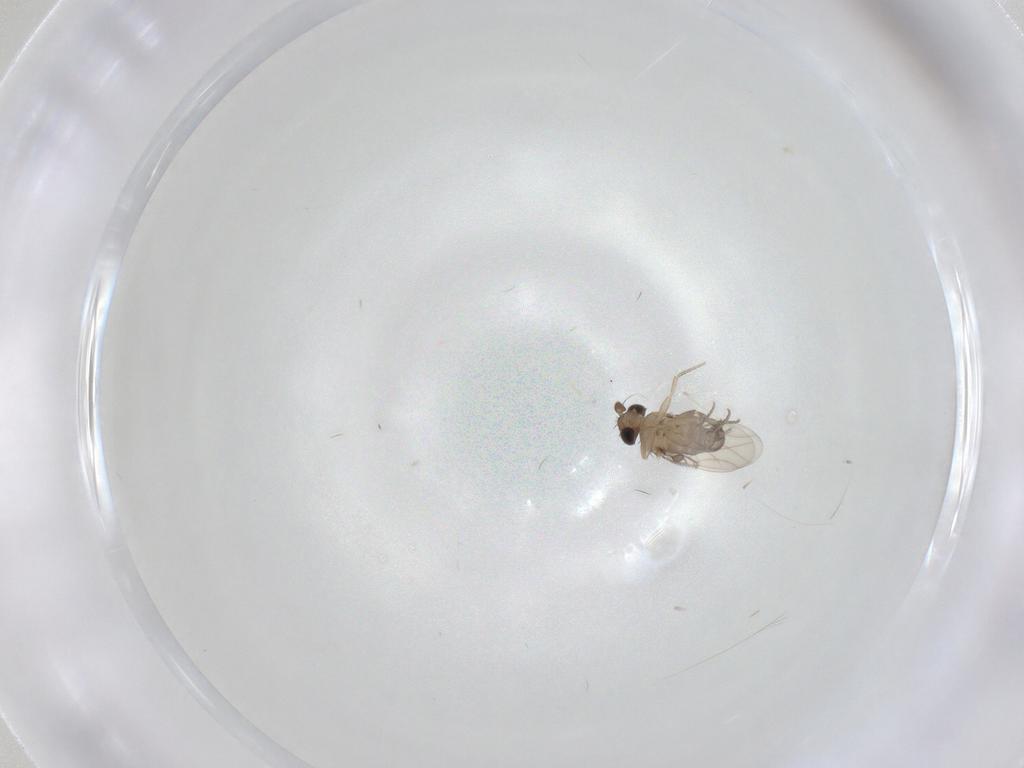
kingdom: Animalia
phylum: Arthropoda
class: Insecta
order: Diptera
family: Phoridae
